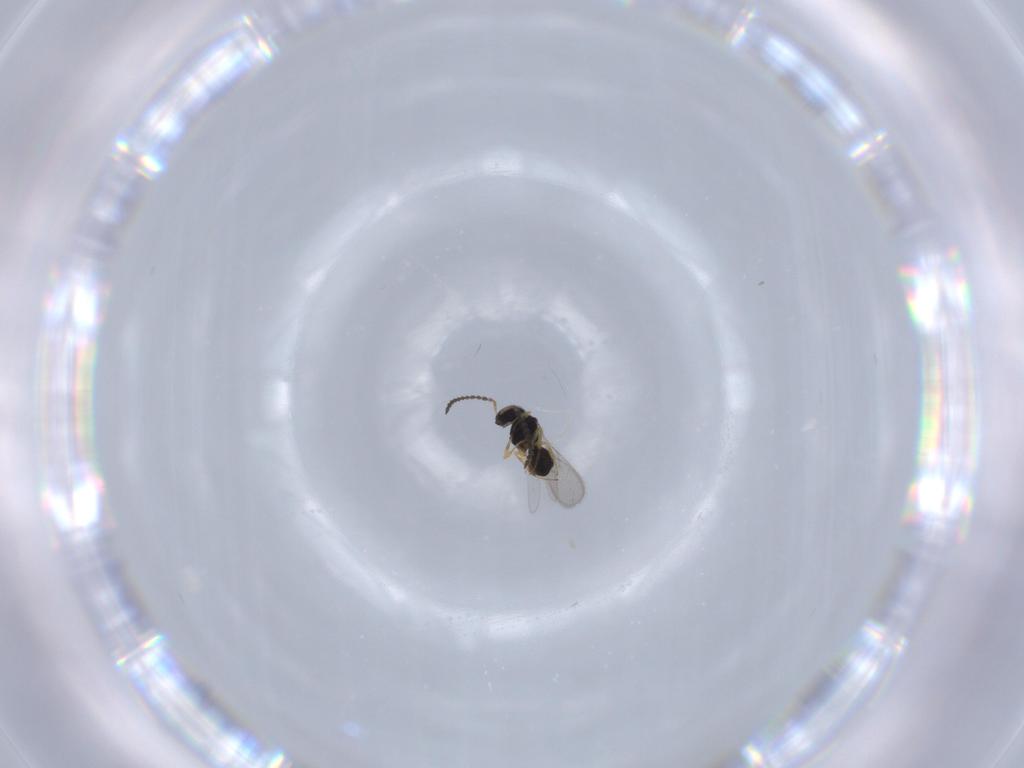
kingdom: Animalia
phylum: Arthropoda
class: Insecta
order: Hymenoptera
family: Scelionidae
